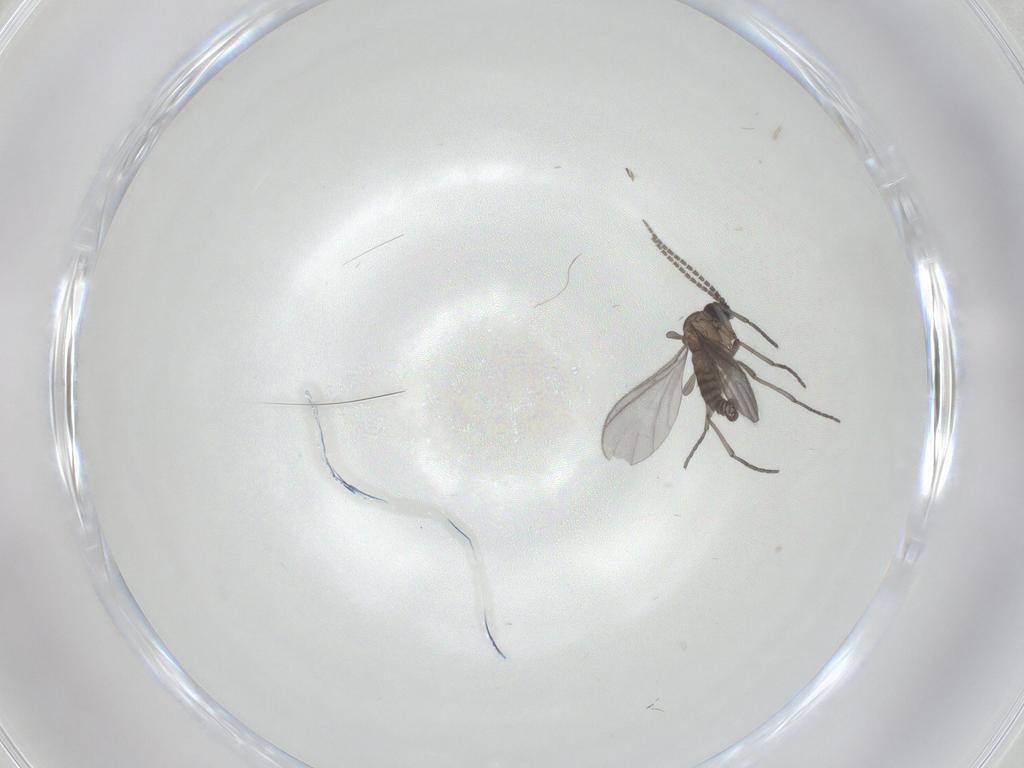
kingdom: Animalia
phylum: Arthropoda
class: Insecta
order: Diptera
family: Sciaridae
